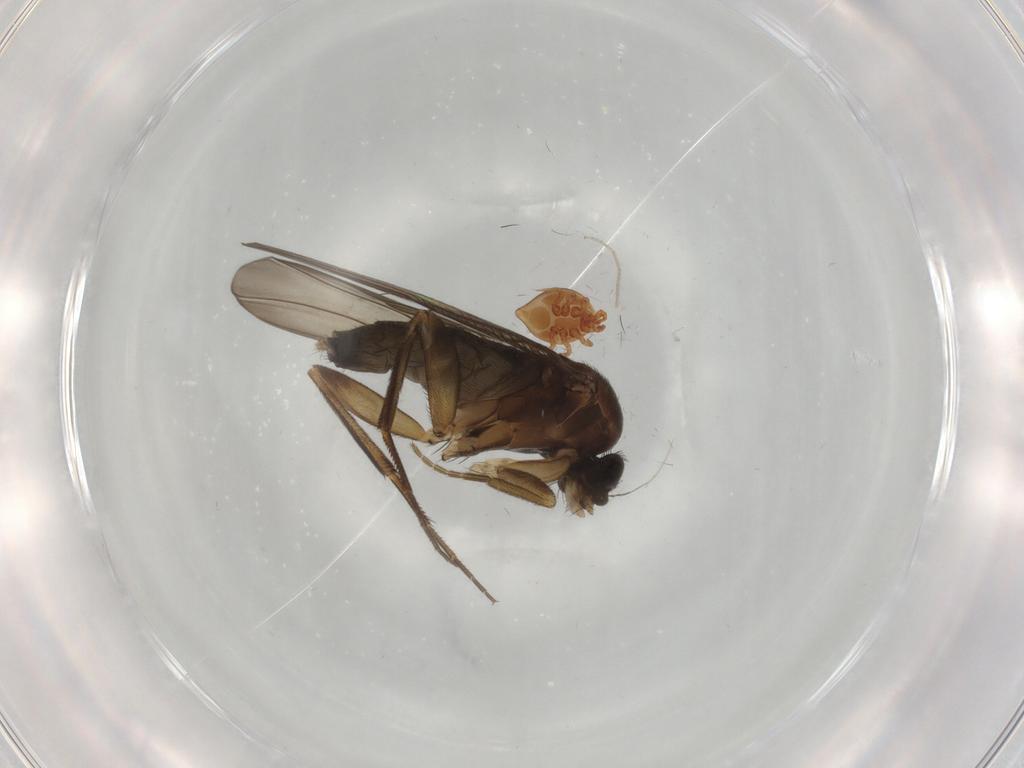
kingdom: Animalia
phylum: Arthropoda
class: Insecta
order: Diptera
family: Phoridae
